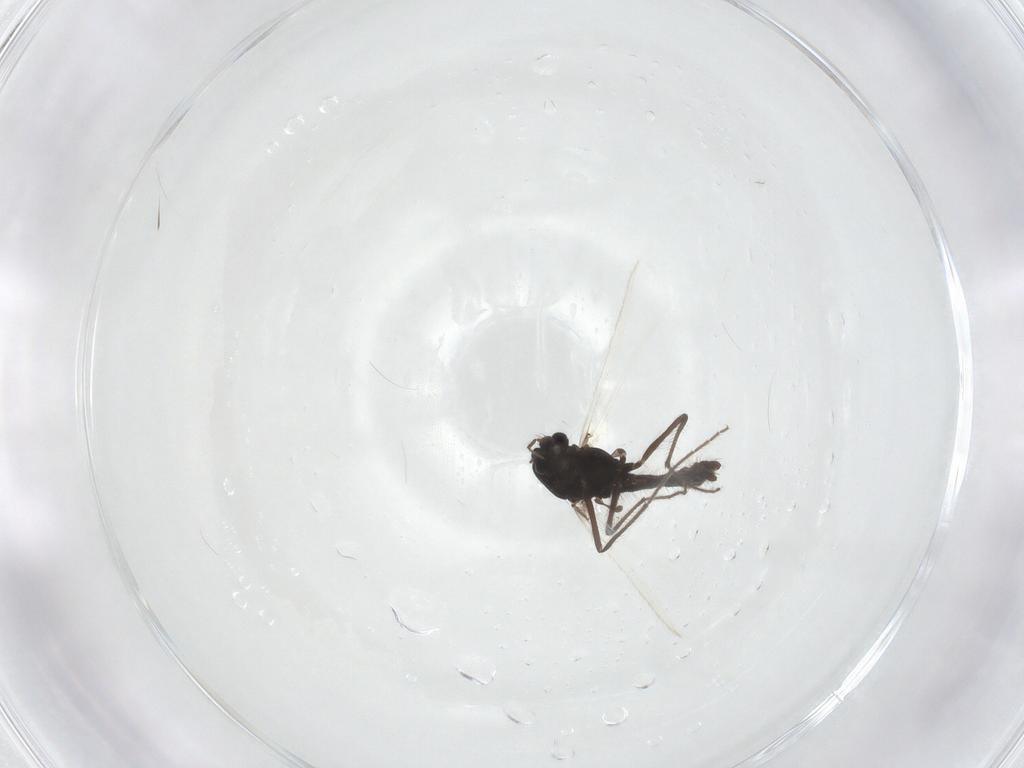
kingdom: Animalia
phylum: Arthropoda
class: Insecta
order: Diptera
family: Chironomidae
